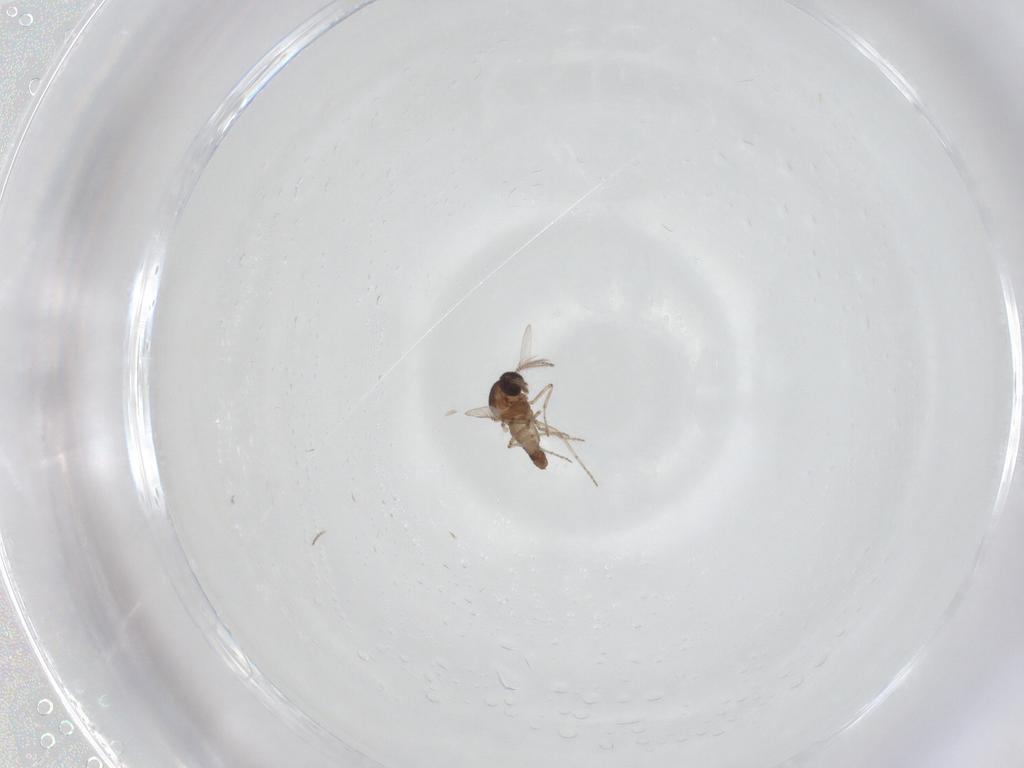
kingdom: Animalia
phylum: Arthropoda
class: Insecta
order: Diptera
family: Ceratopogonidae
